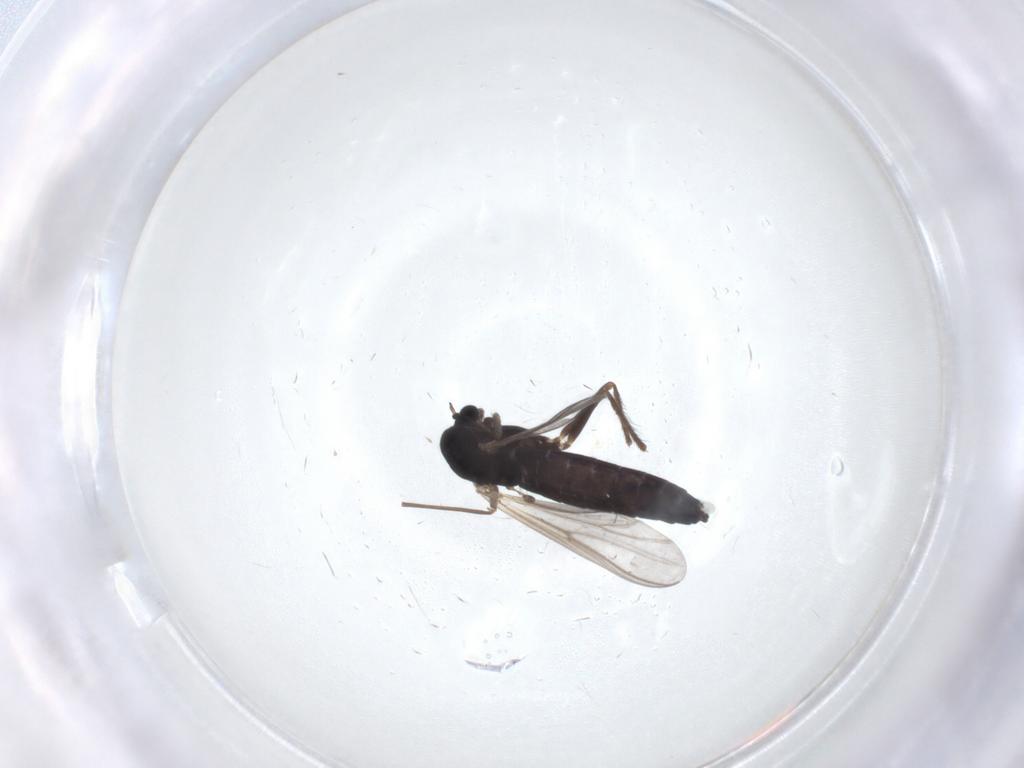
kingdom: Animalia
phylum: Arthropoda
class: Insecta
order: Diptera
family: Chironomidae
